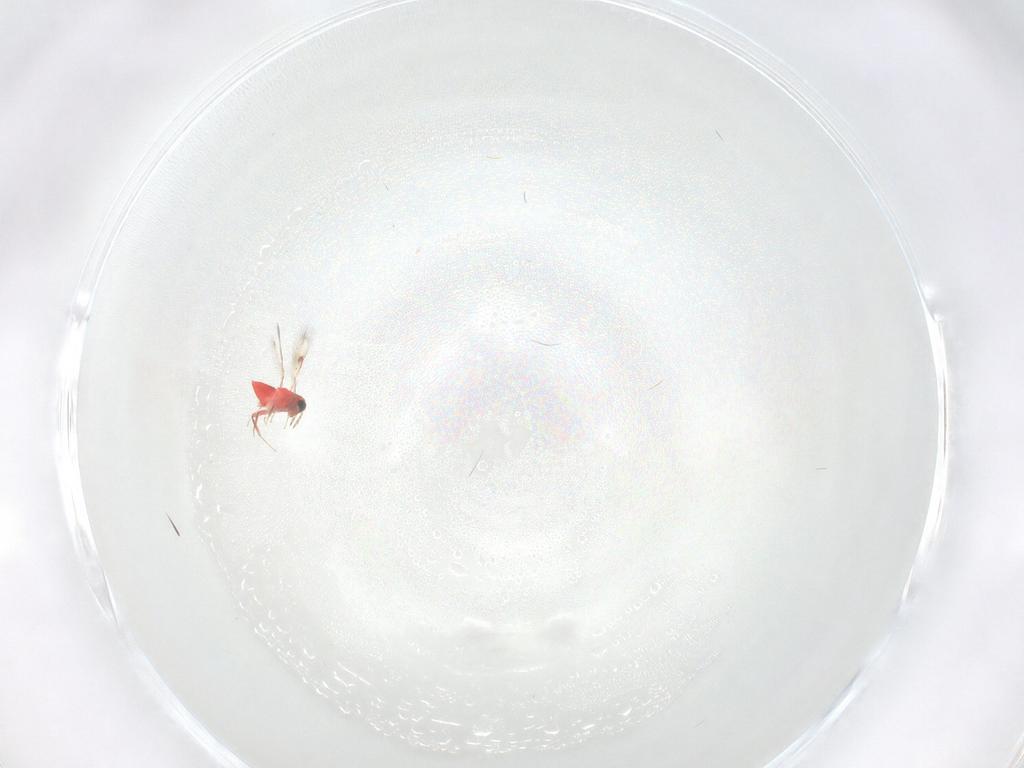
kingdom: Animalia
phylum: Arthropoda
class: Insecta
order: Hymenoptera
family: Trichogrammatidae
